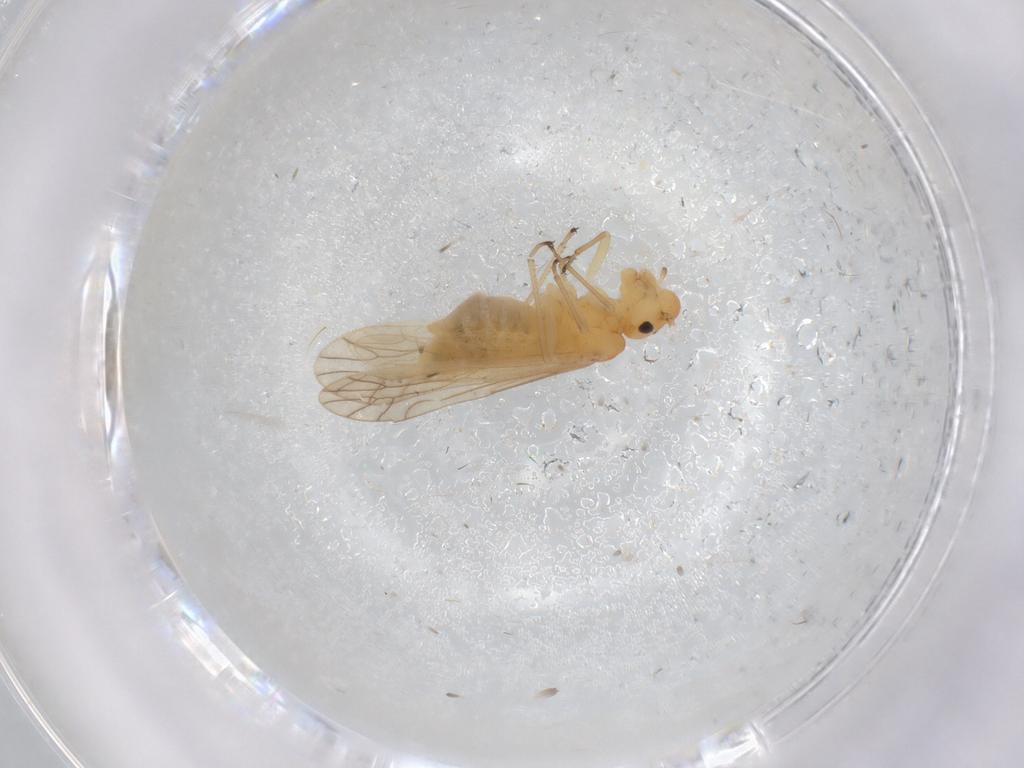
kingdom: Animalia
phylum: Arthropoda
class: Insecta
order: Psocodea
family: Caeciliusidae
